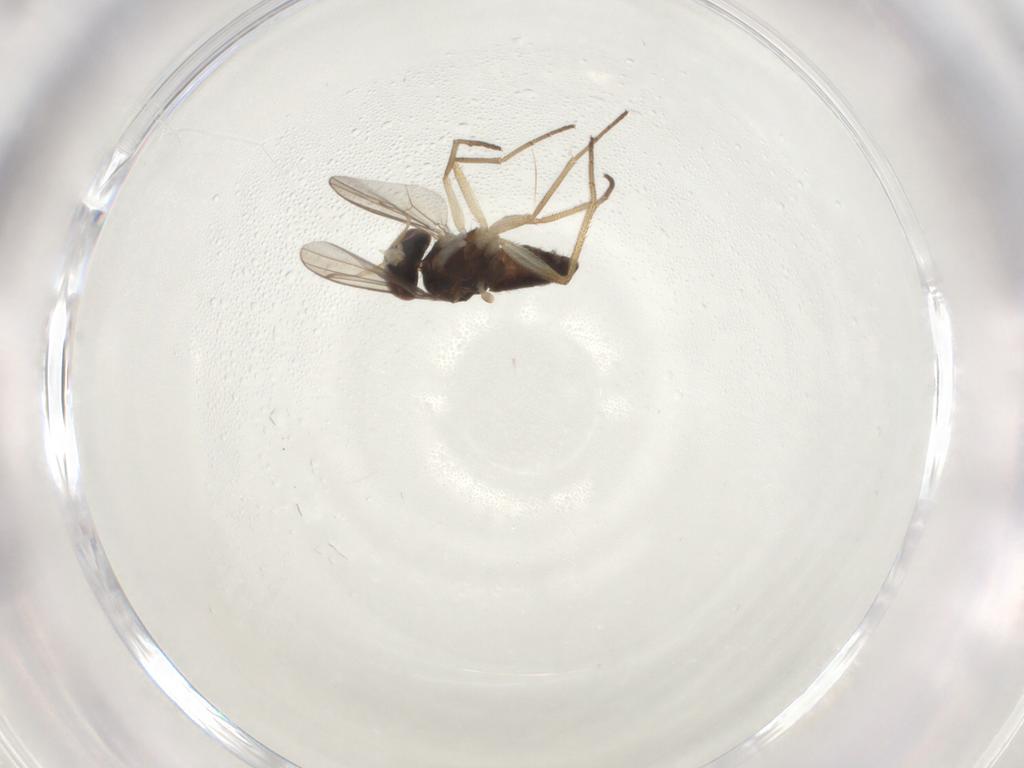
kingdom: Animalia
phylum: Arthropoda
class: Insecta
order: Diptera
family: Dolichopodidae
